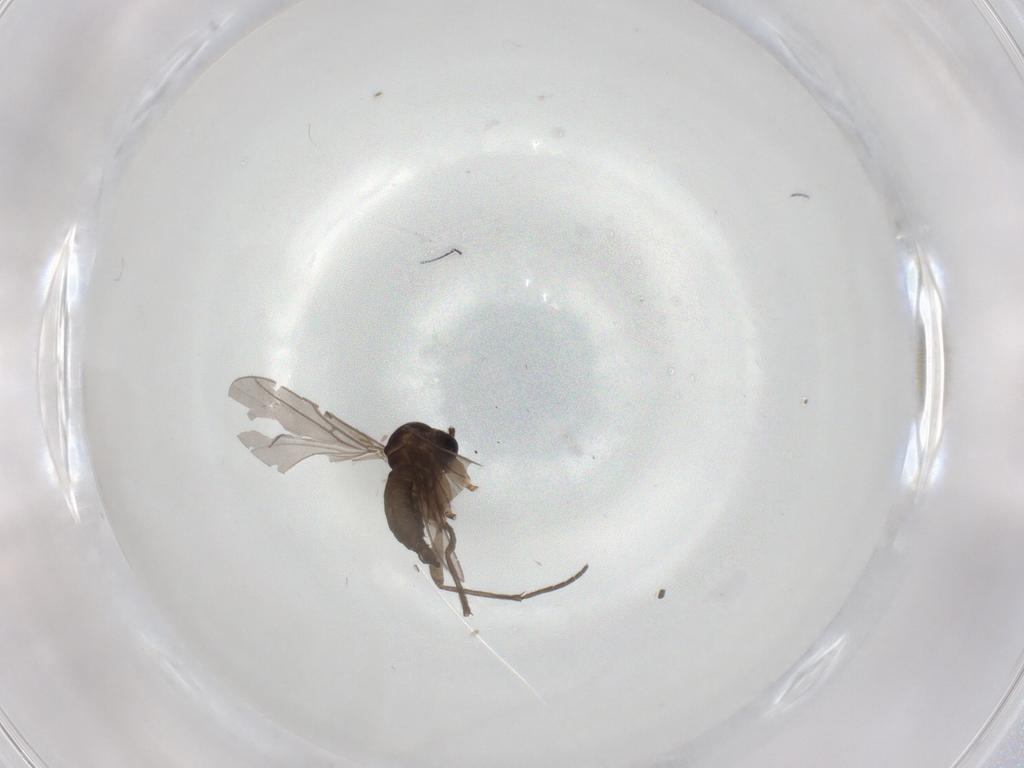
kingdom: Animalia
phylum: Arthropoda
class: Insecta
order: Diptera
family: Sciaridae
